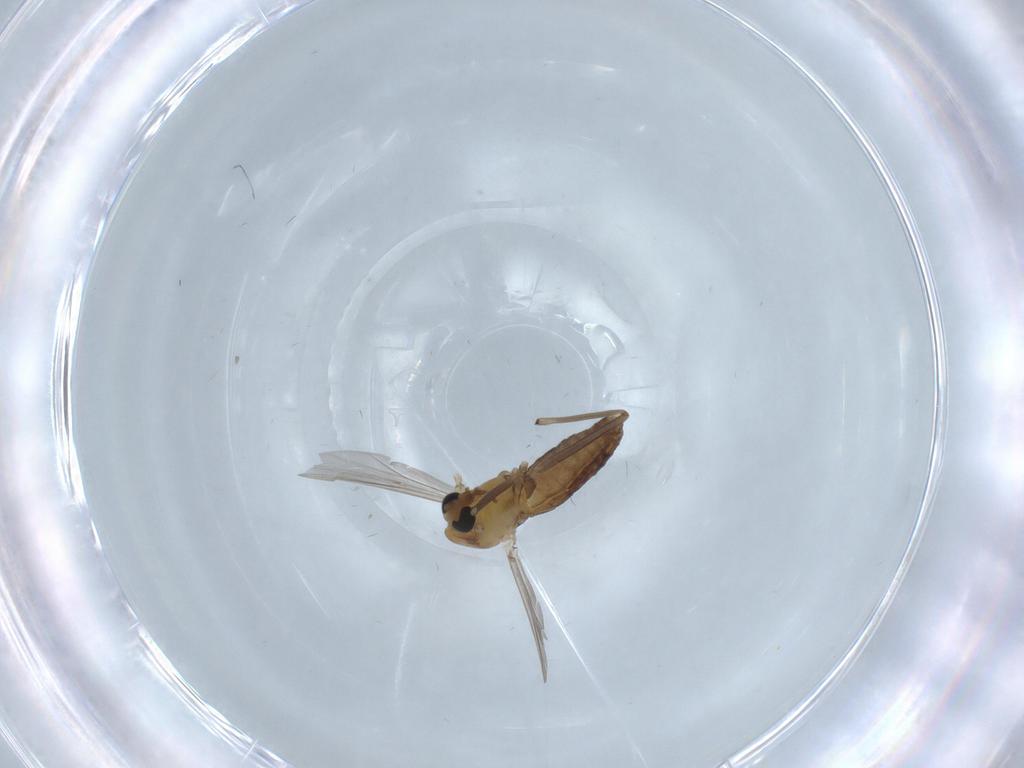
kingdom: Animalia
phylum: Arthropoda
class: Insecta
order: Diptera
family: Chironomidae
